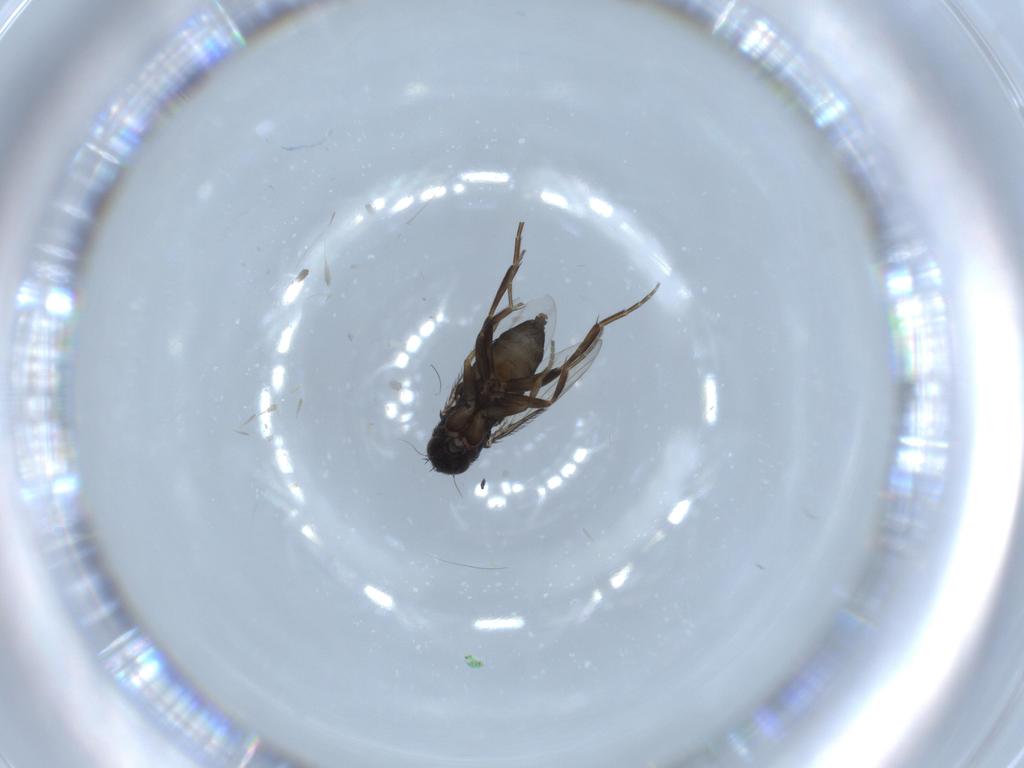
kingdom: Animalia
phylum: Arthropoda
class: Insecta
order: Diptera
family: Phoridae
